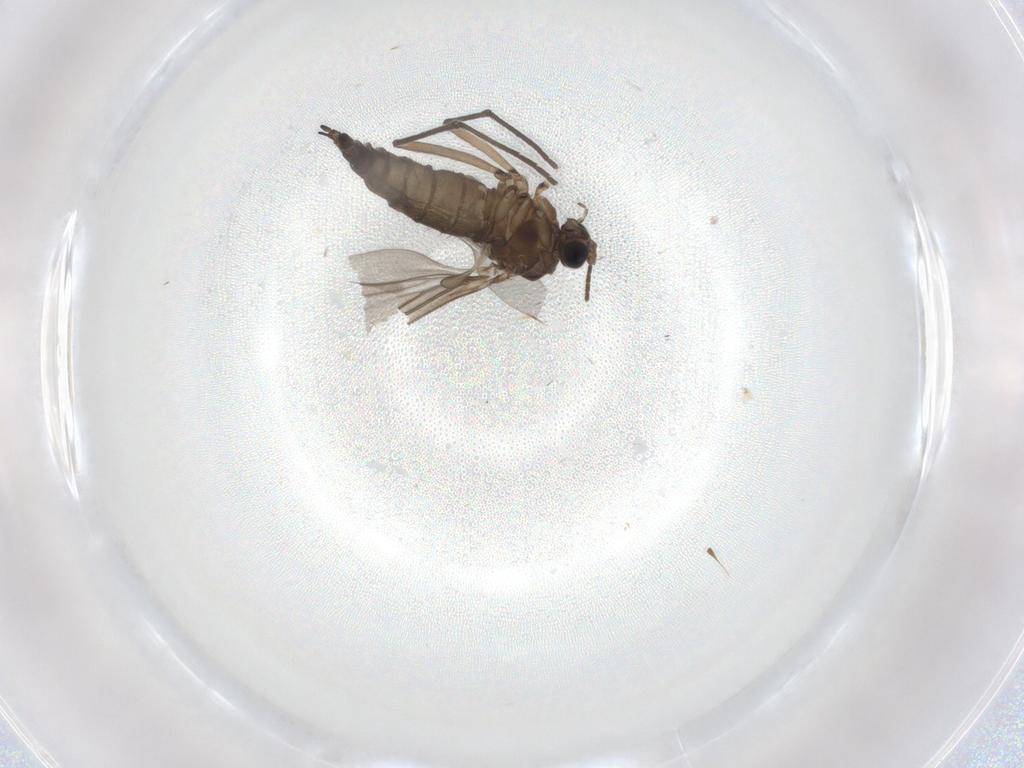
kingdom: Animalia
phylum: Arthropoda
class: Insecta
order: Diptera
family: Sciaridae
